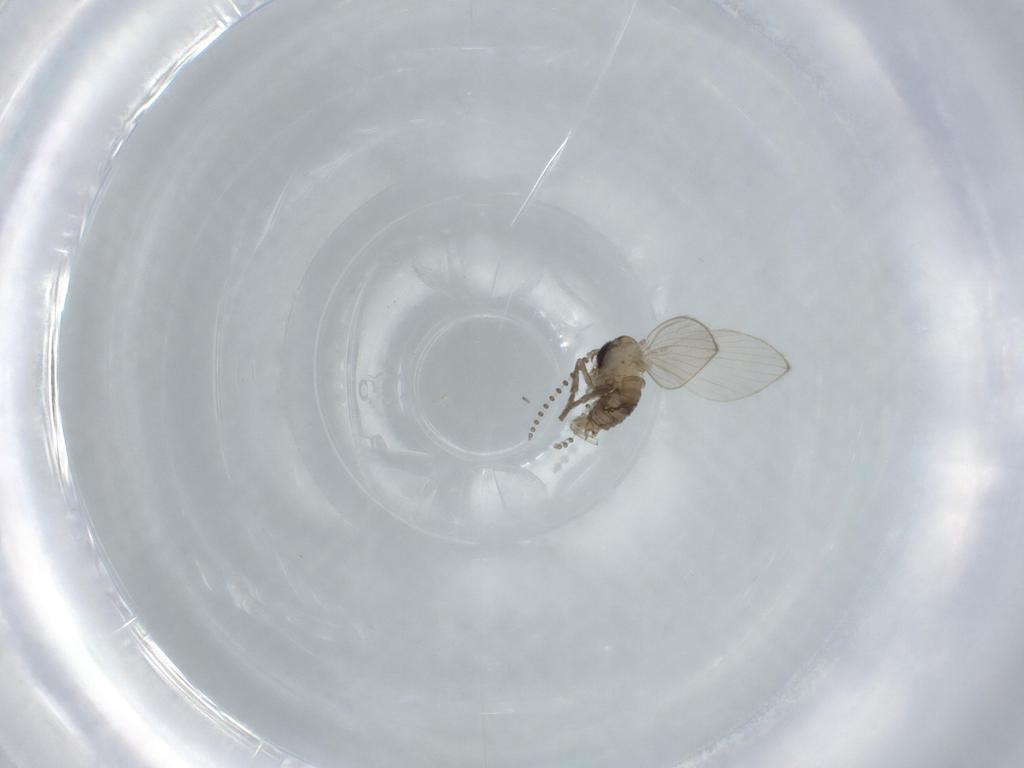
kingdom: Animalia
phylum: Arthropoda
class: Insecta
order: Diptera
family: Psychodidae
